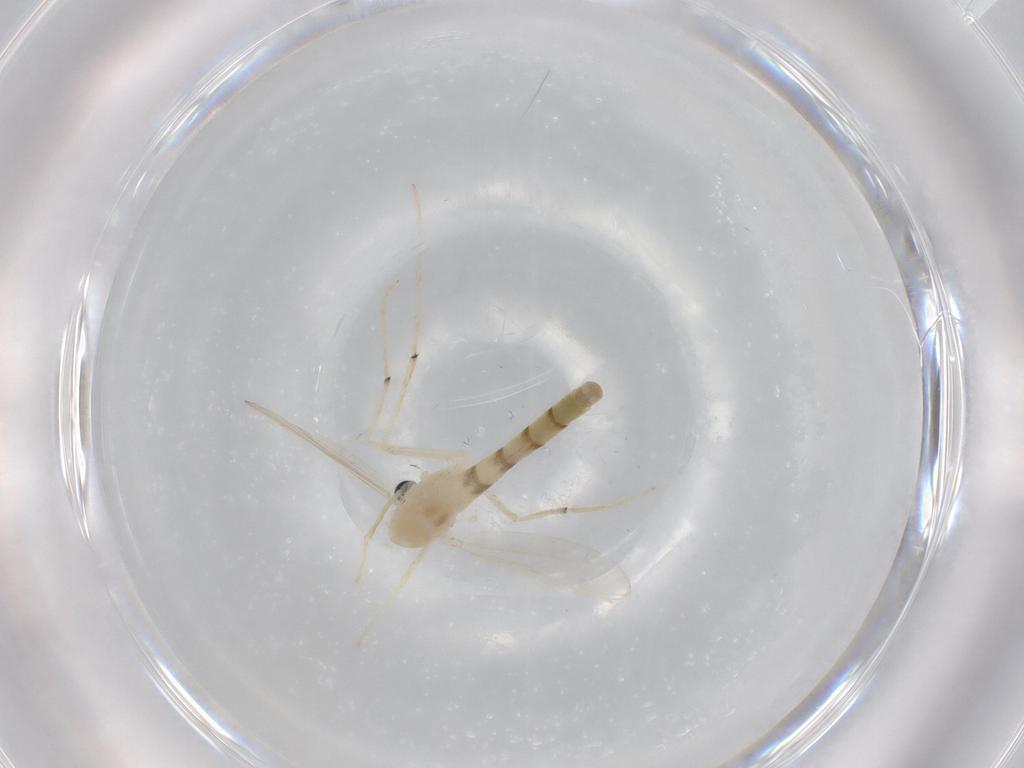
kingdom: Animalia
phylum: Arthropoda
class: Insecta
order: Diptera
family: Chironomidae
